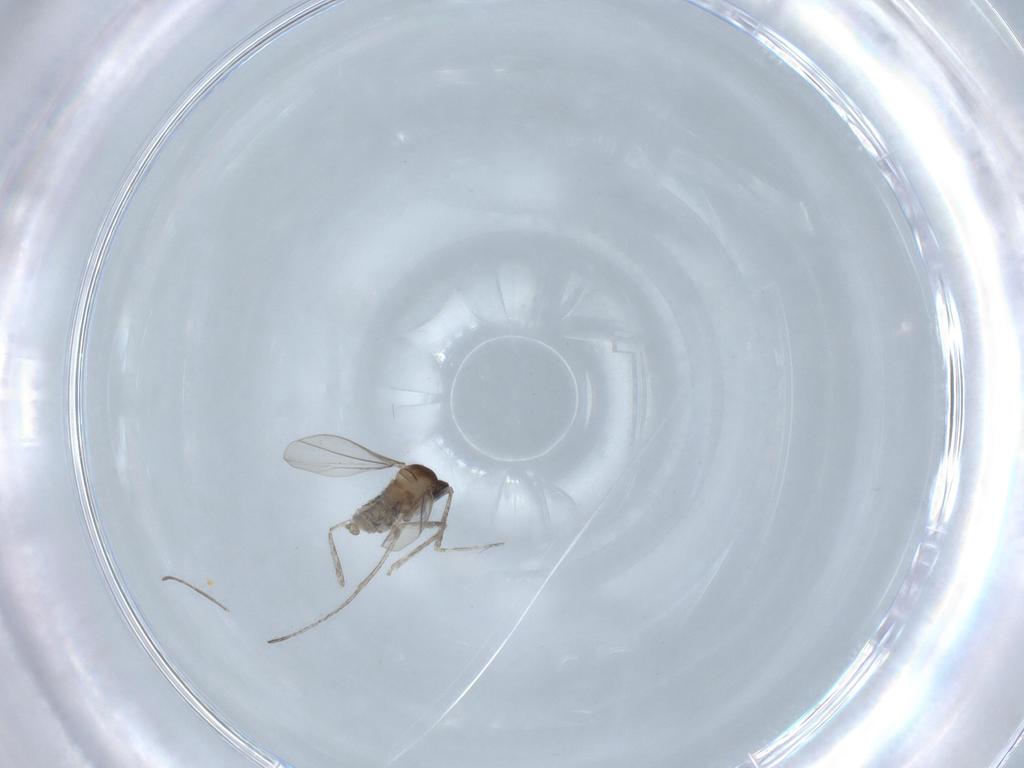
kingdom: Animalia
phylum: Arthropoda
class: Insecta
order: Diptera
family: Cecidomyiidae
